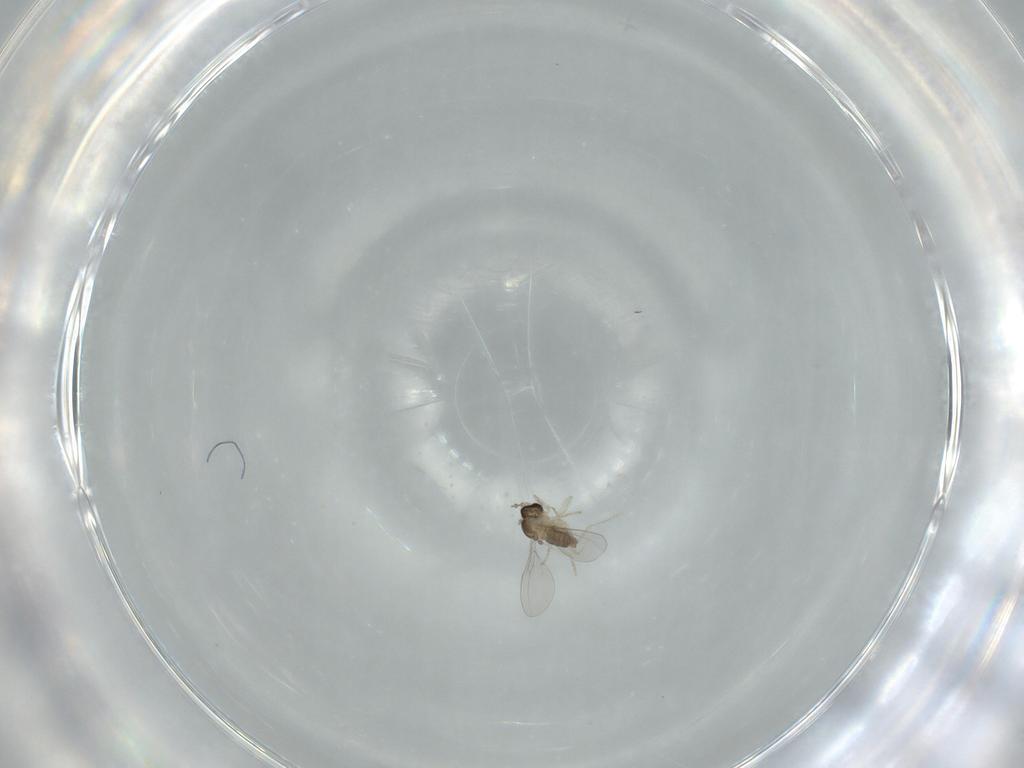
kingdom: Animalia
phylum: Arthropoda
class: Insecta
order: Diptera
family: Cecidomyiidae
